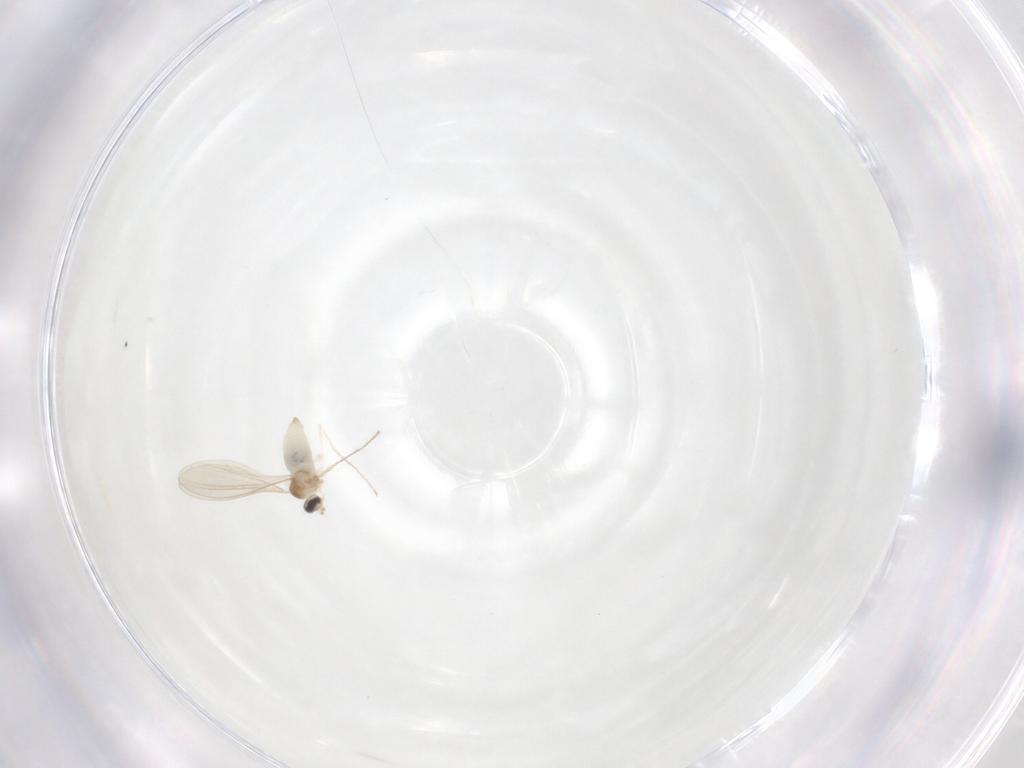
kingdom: Animalia
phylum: Arthropoda
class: Insecta
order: Diptera
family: Cecidomyiidae
